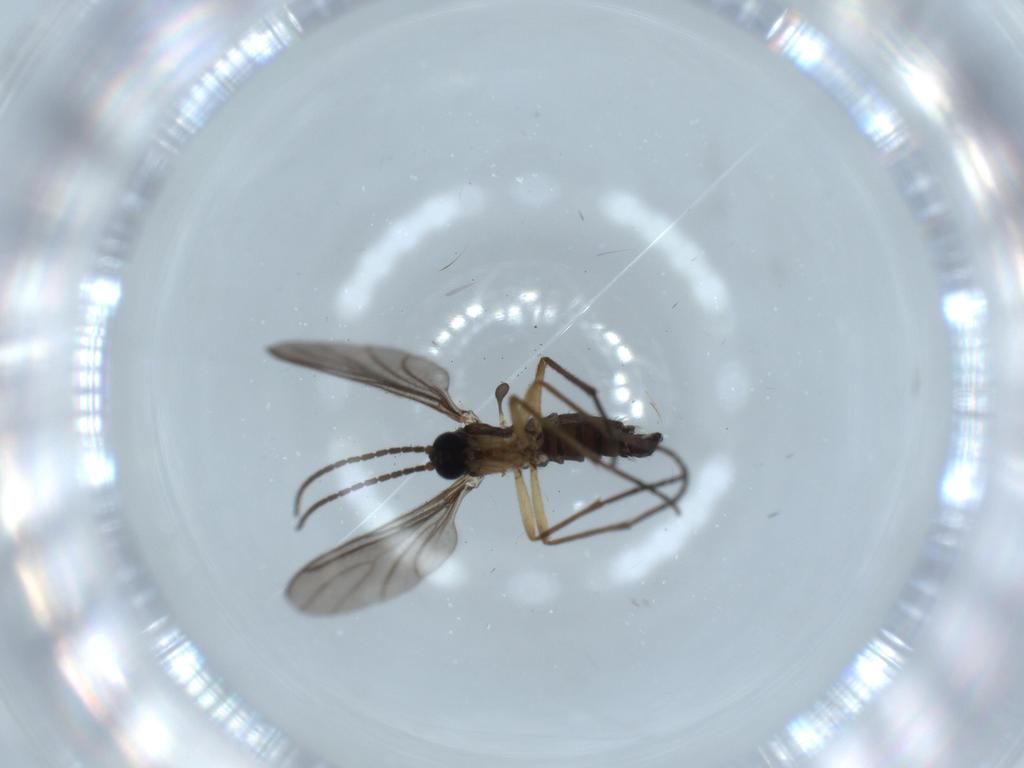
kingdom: Animalia
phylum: Arthropoda
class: Insecta
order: Diptera
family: Sciaridae
